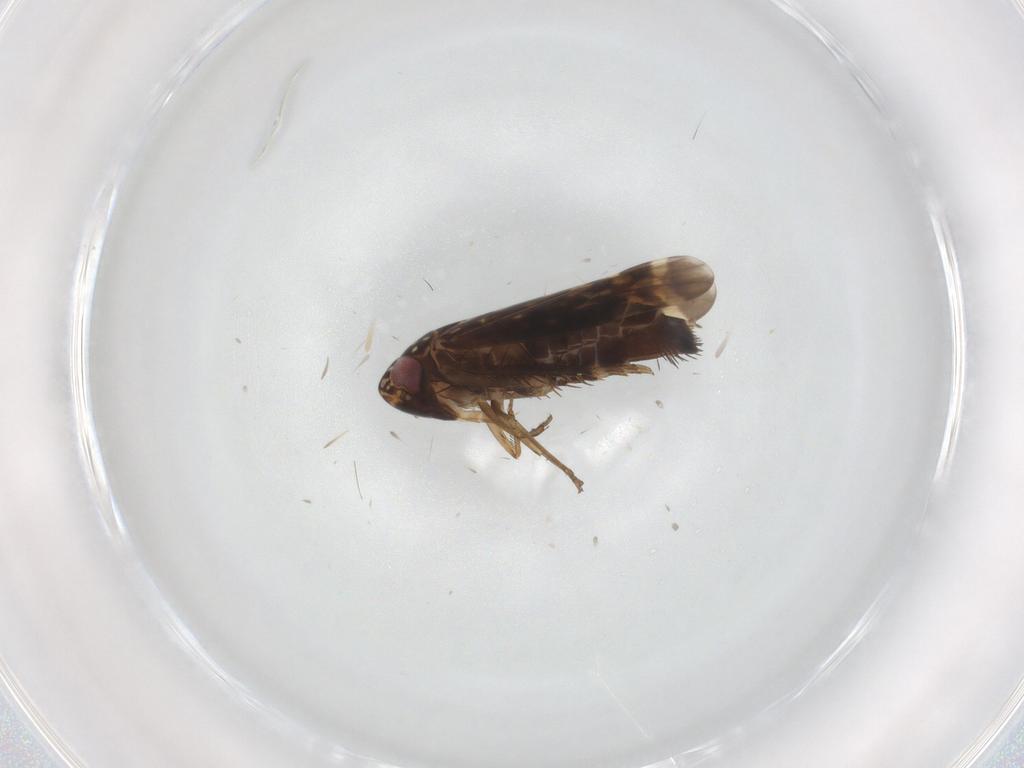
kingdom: Animalia
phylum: Arthropoda
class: Insecta
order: Hemiptera
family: Cicadellidae
